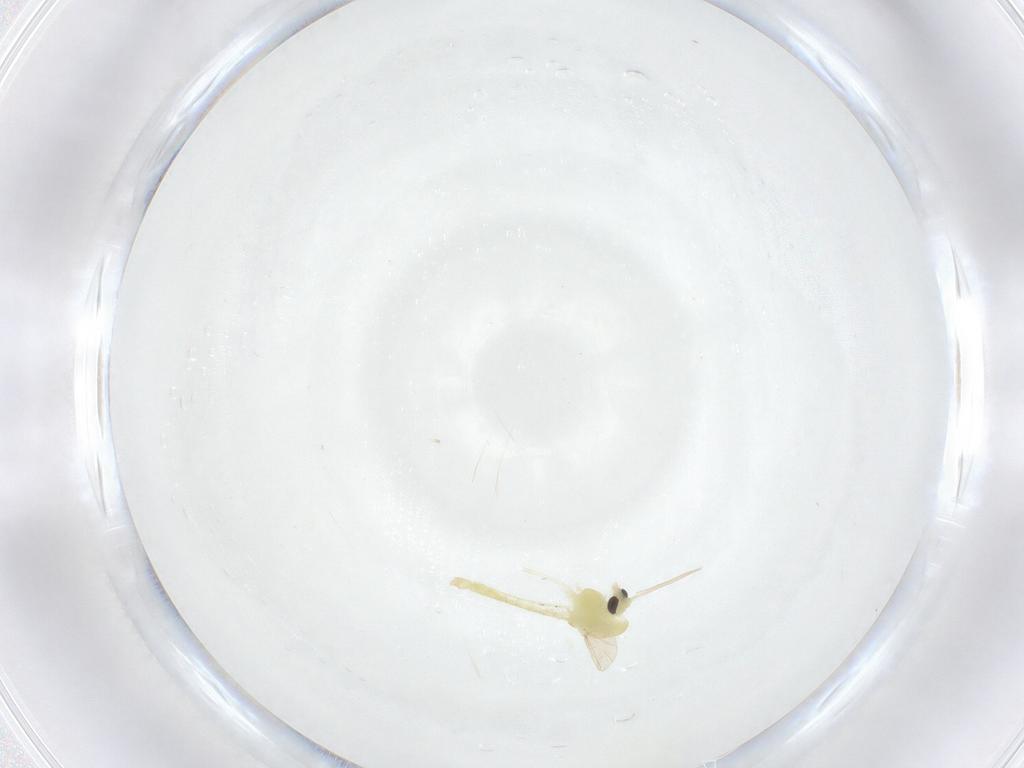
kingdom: Animalia
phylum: Arthropoda
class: Insecta
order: Diptera
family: Chironomidae
